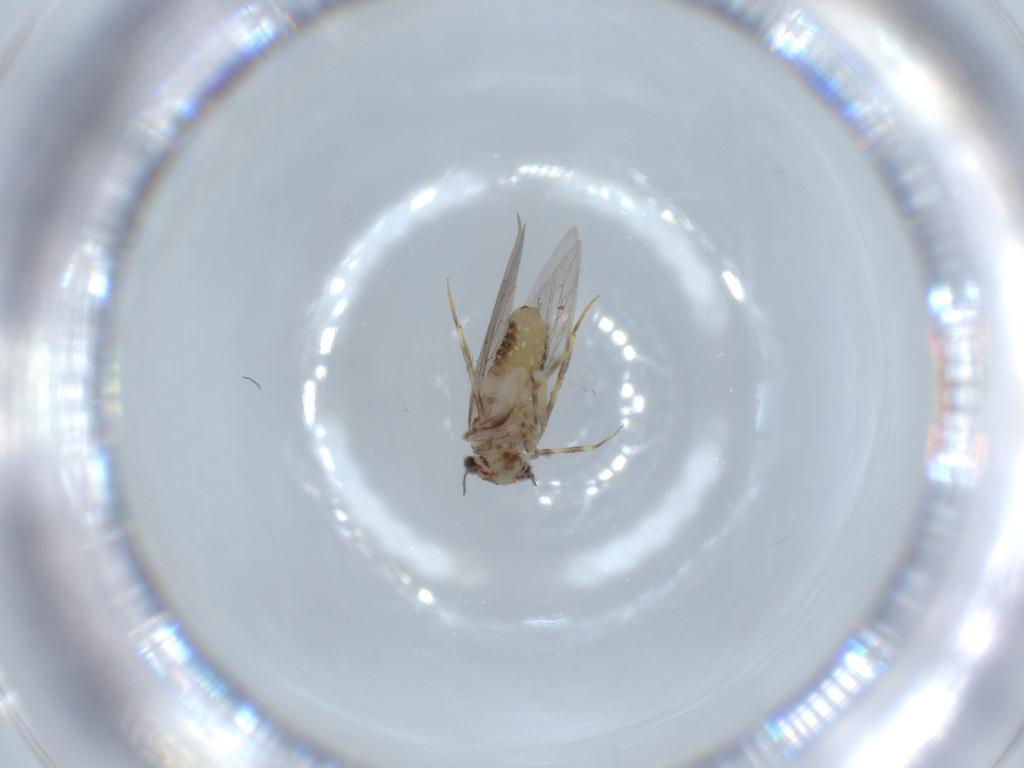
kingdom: Animalia
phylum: Arthropoda
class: Insecta
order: Psocodea
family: Lepidopsocidae
